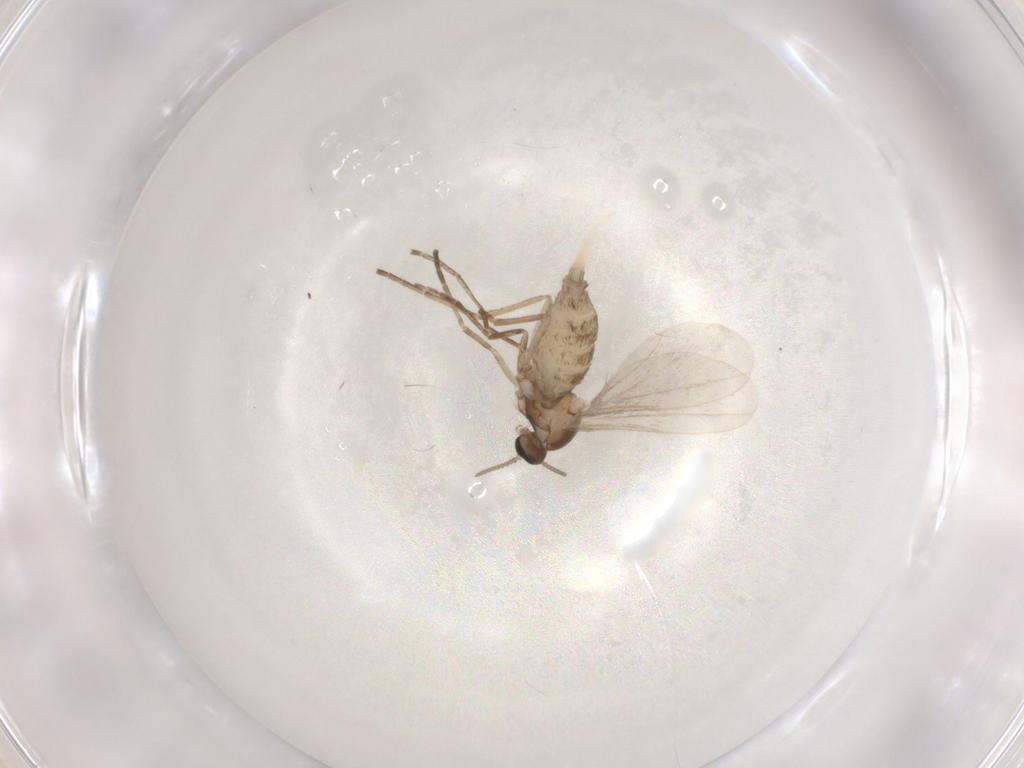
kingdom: Animalia
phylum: Arthropoda
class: Insecta
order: Diptera
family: Cecidomyiidae
